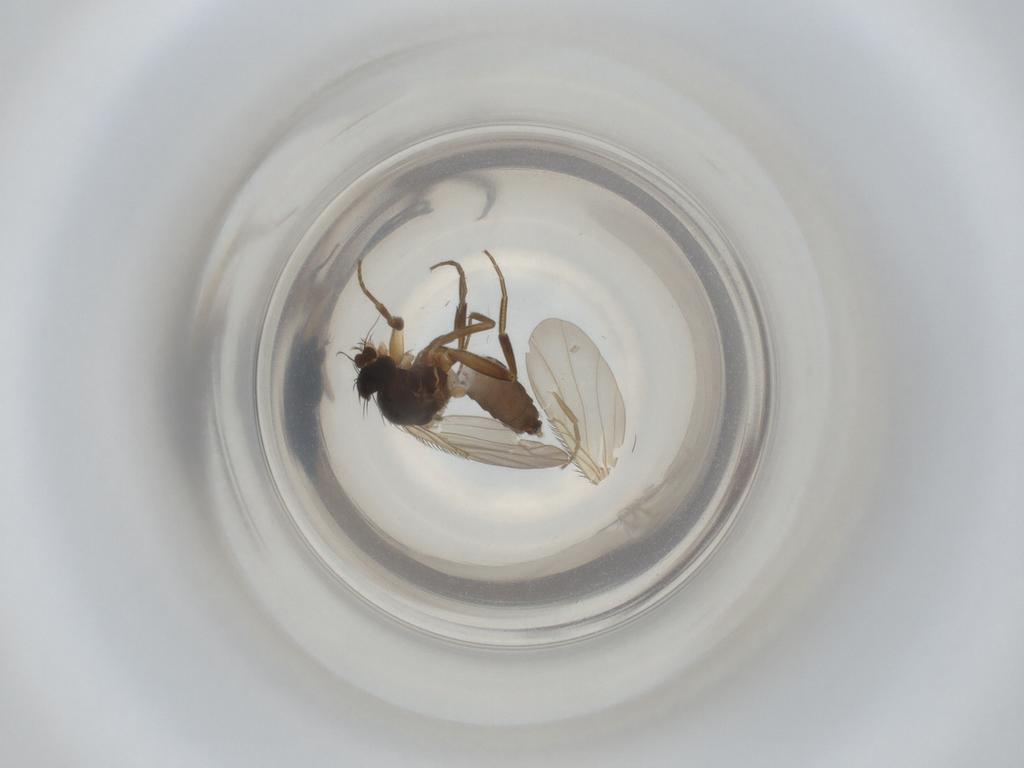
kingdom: Animalia
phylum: Arthropoda
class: Insecta
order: Diptera
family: Phoridae
